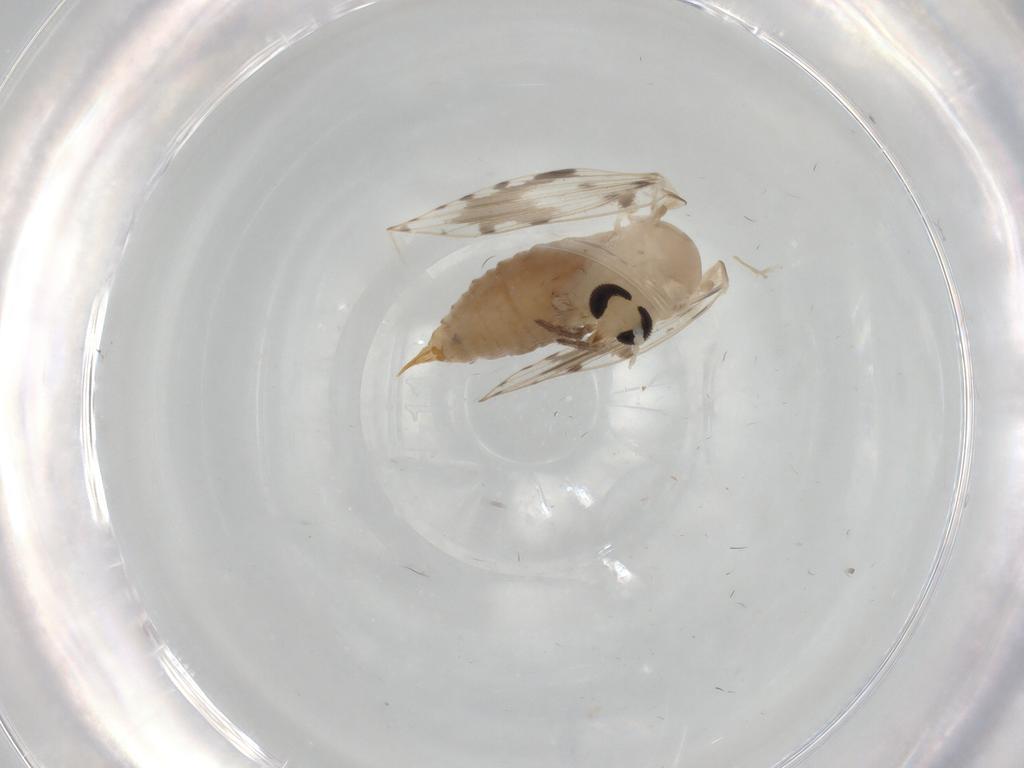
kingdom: Animalia
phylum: Arthropoda
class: Insecta
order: Diptera
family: Psychodidae
